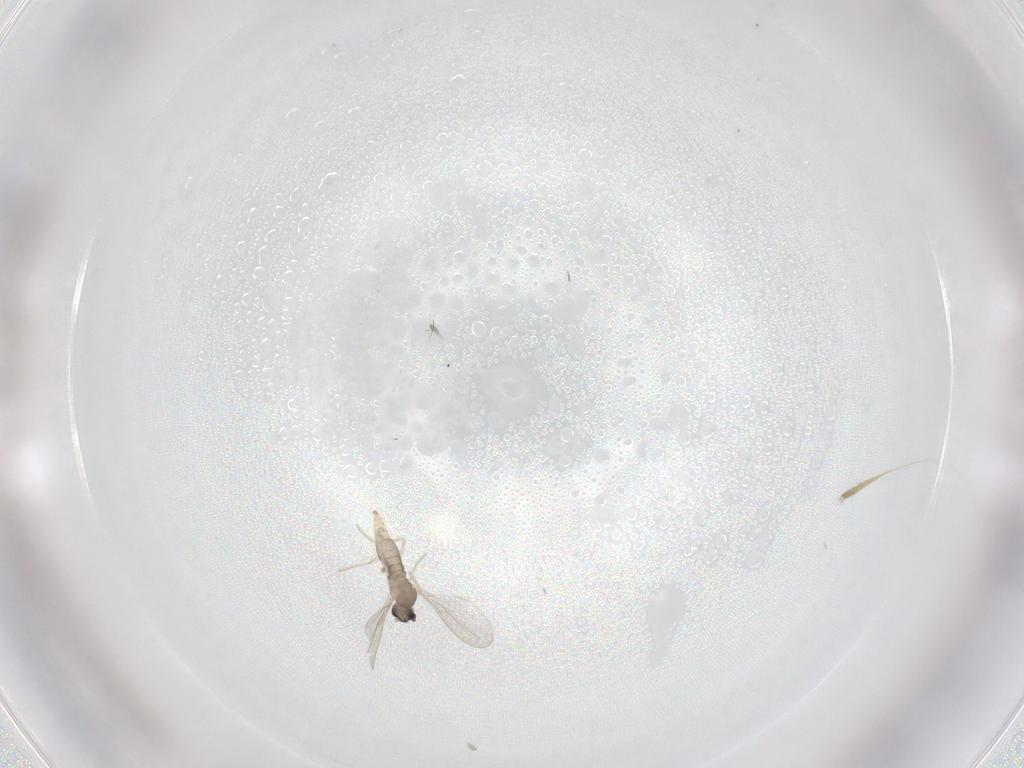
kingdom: Animalia
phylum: Arthropoda
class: Insecta
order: Diptera
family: Cecidomyiidae
